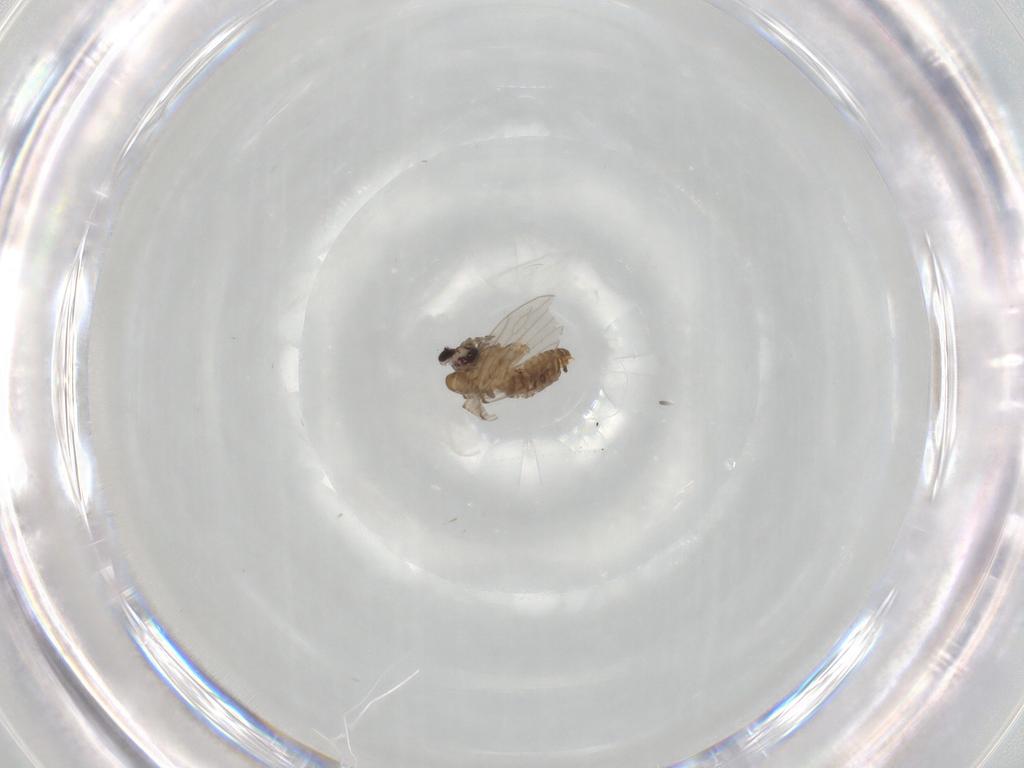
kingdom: Animalia
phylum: Arthropoda
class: Insecta
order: Diptera
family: Psychodidae
